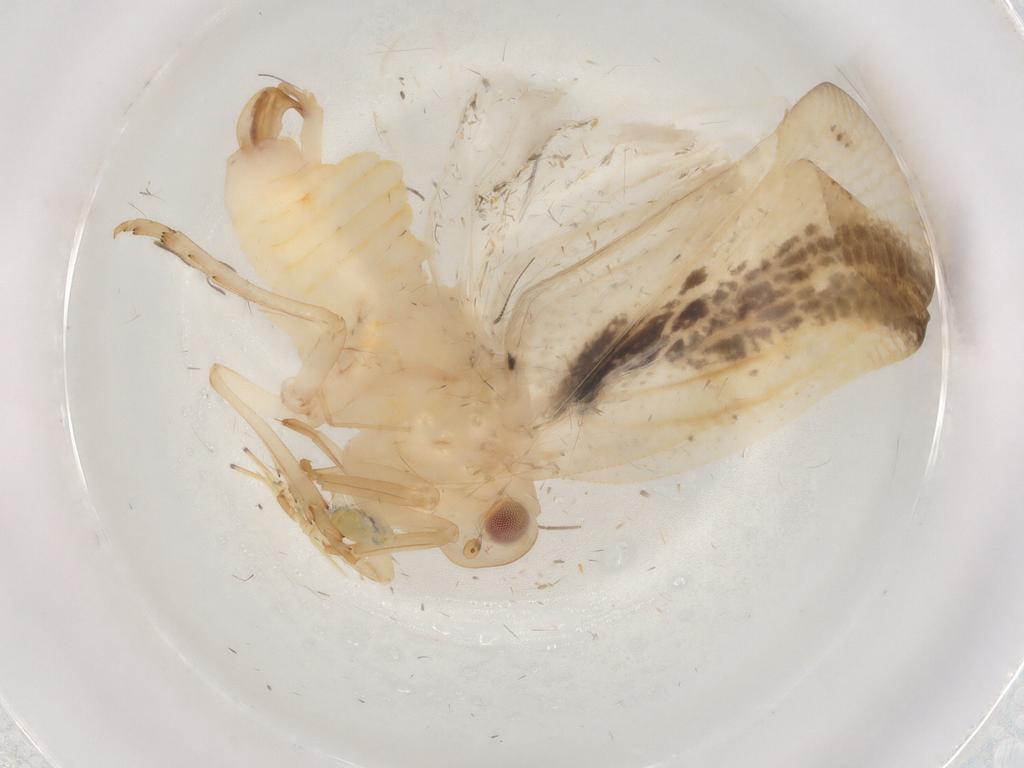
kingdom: Animalia
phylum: Arthropoda
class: Insecta
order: Hemiptera
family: Flatidae
